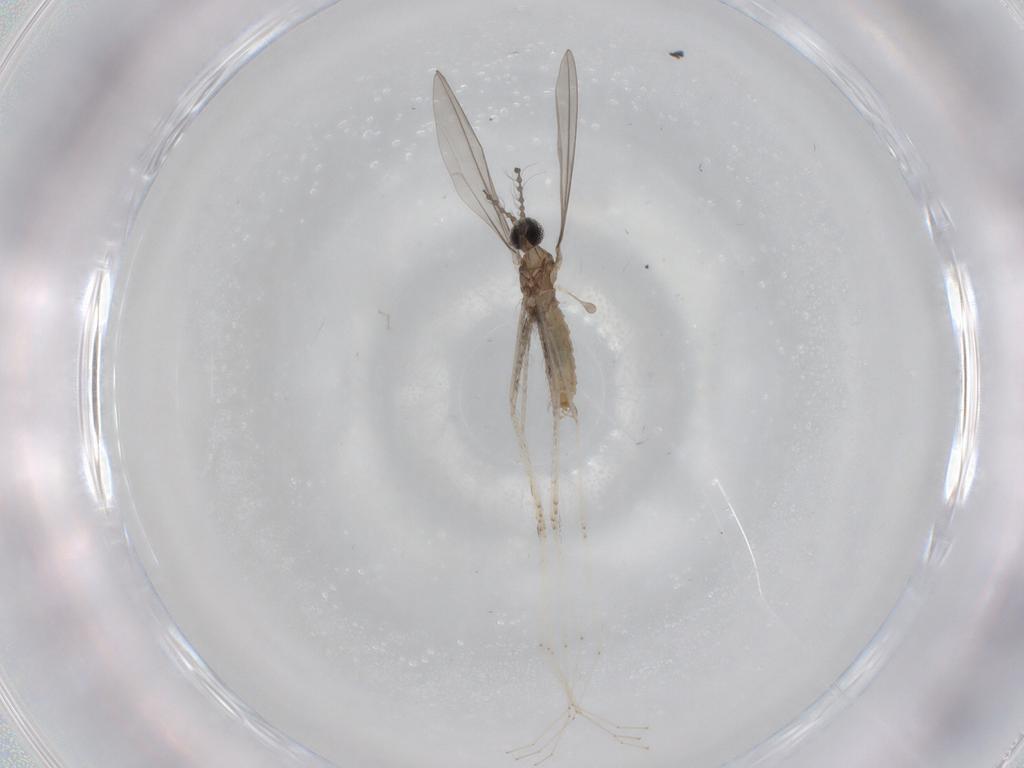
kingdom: Animalia
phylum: Arthropoda
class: Insecta
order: Diptera
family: Cecidomyiidae
